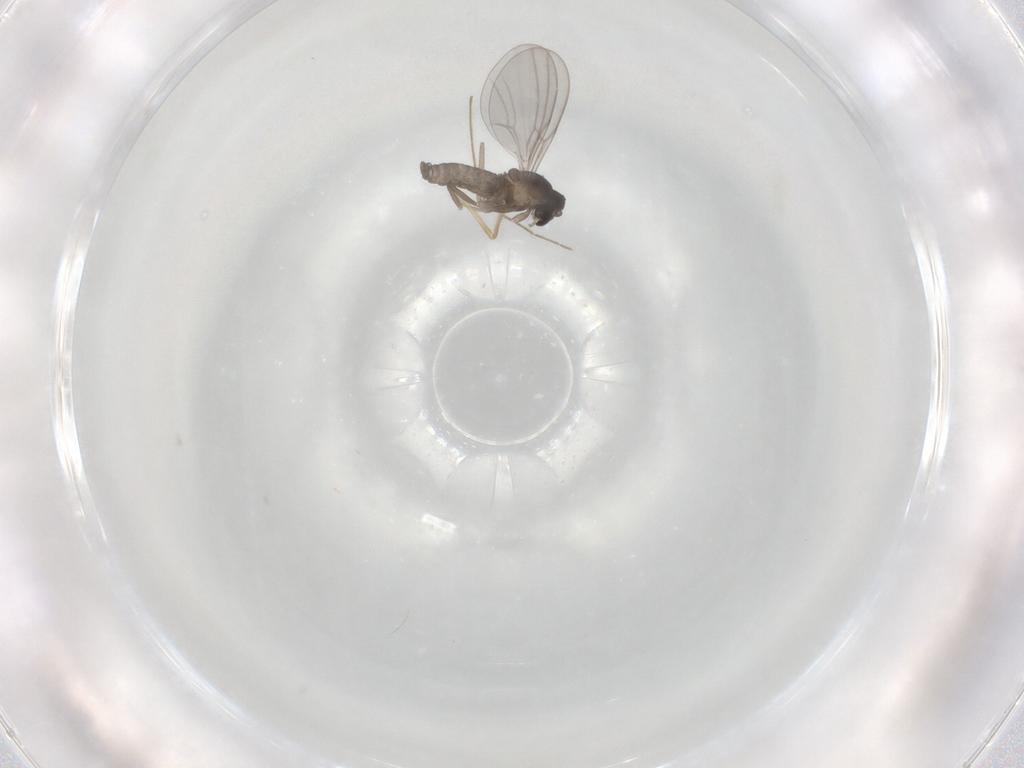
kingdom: Animalia
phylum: Arthropoda
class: Insecta
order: Diptera
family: Cecidomyiidae
